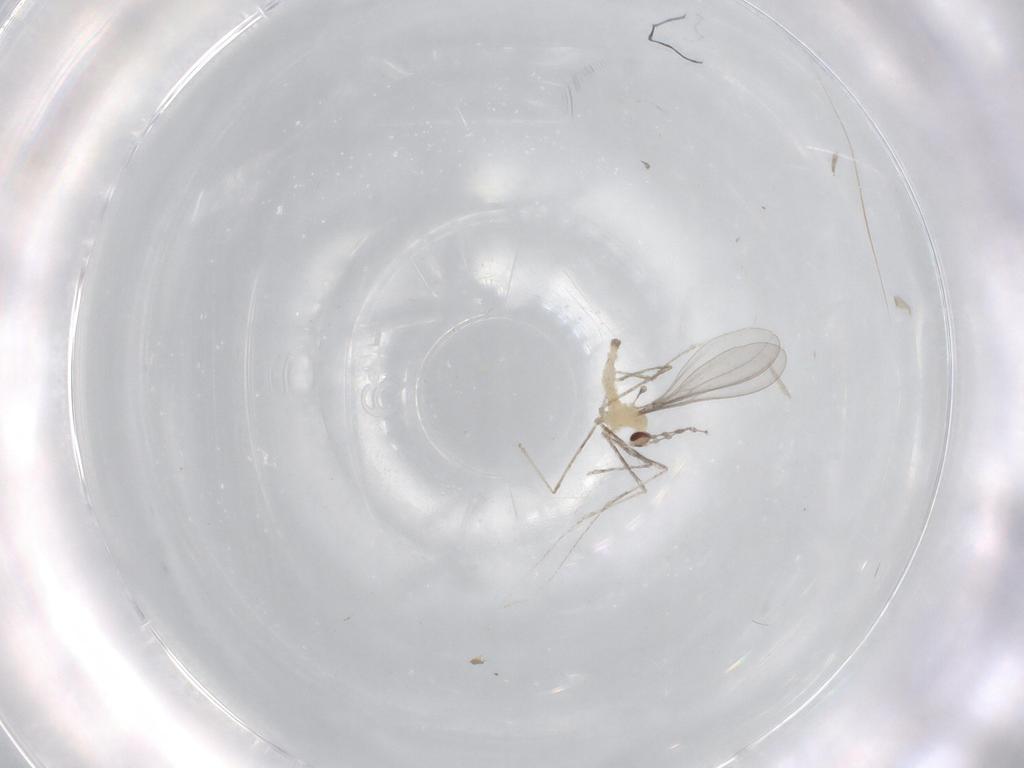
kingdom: Animalia
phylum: Arthropoda
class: Insecta
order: Diptera
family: Cecidomyiidae
